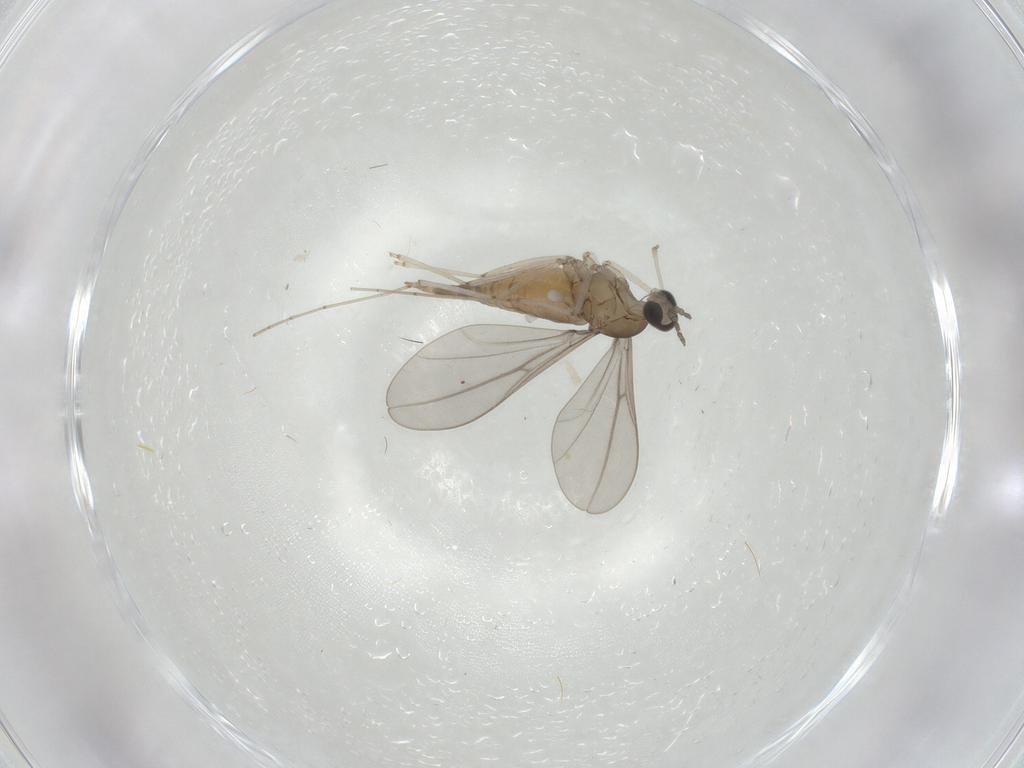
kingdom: Animalia
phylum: Arthropoda
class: Insecta
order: Diptera
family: Cecidomyiidae
